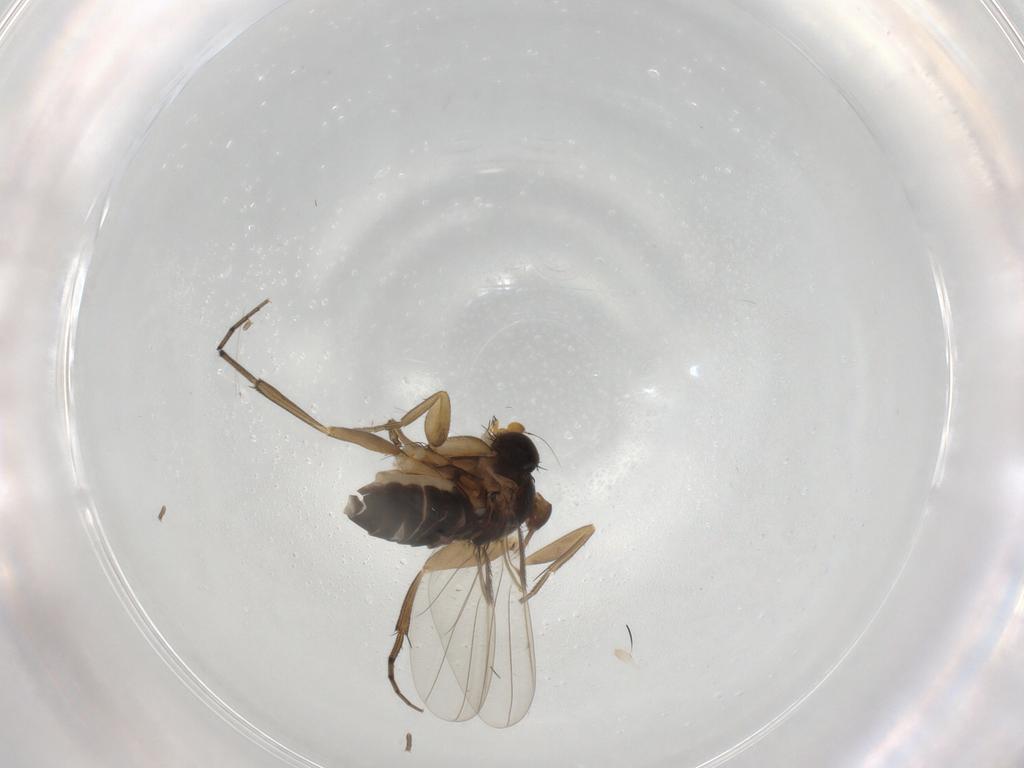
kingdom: Animalia
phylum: Arthropoda
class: Insecta
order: Diptera
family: Phoridae
